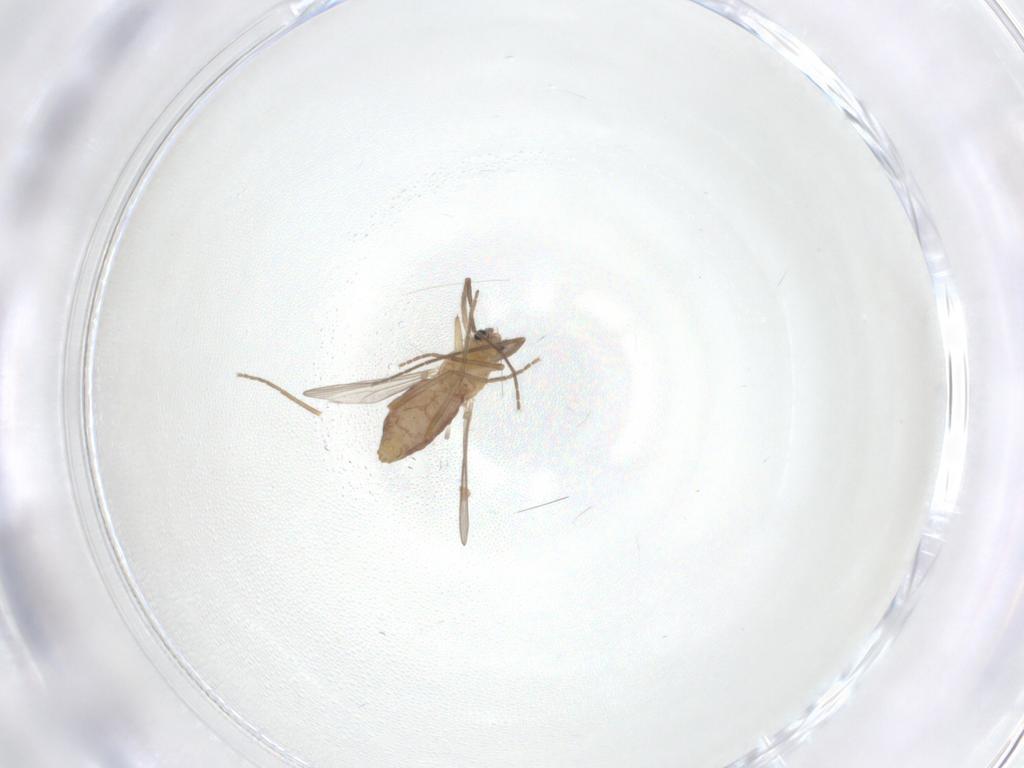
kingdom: Animalia
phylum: Arthropoda
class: Insecta
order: Diptera
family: Chironomidae
